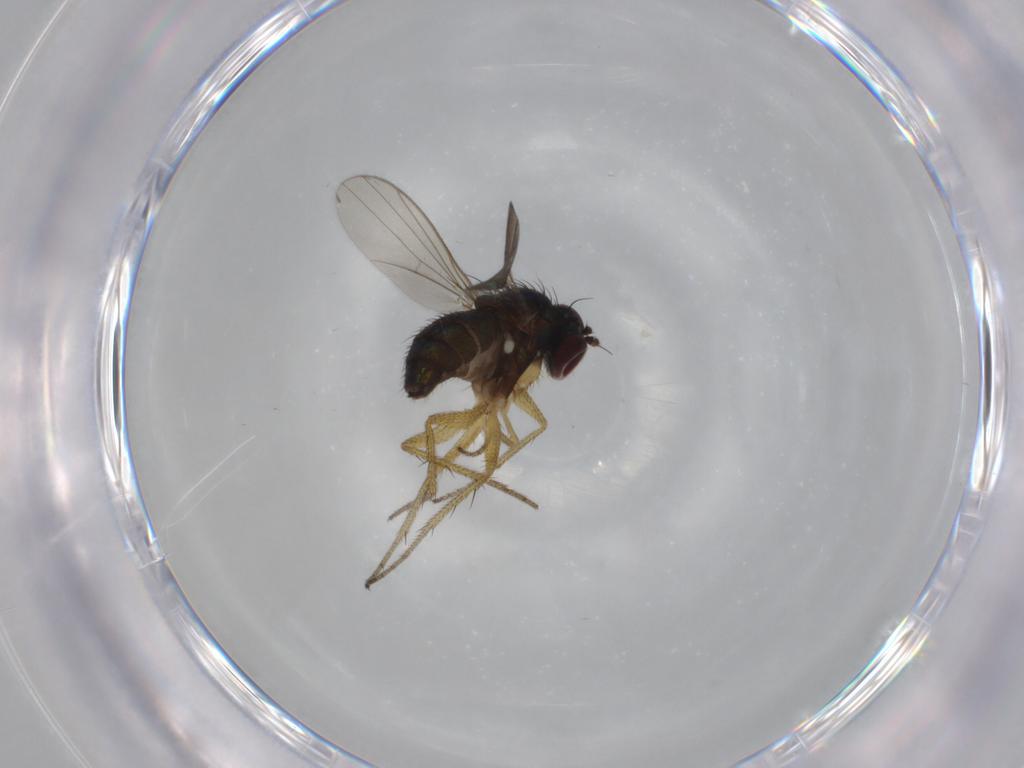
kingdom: Animalia
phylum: Arthropoda
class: Insecta
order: Diptera
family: Dolichopodidae
